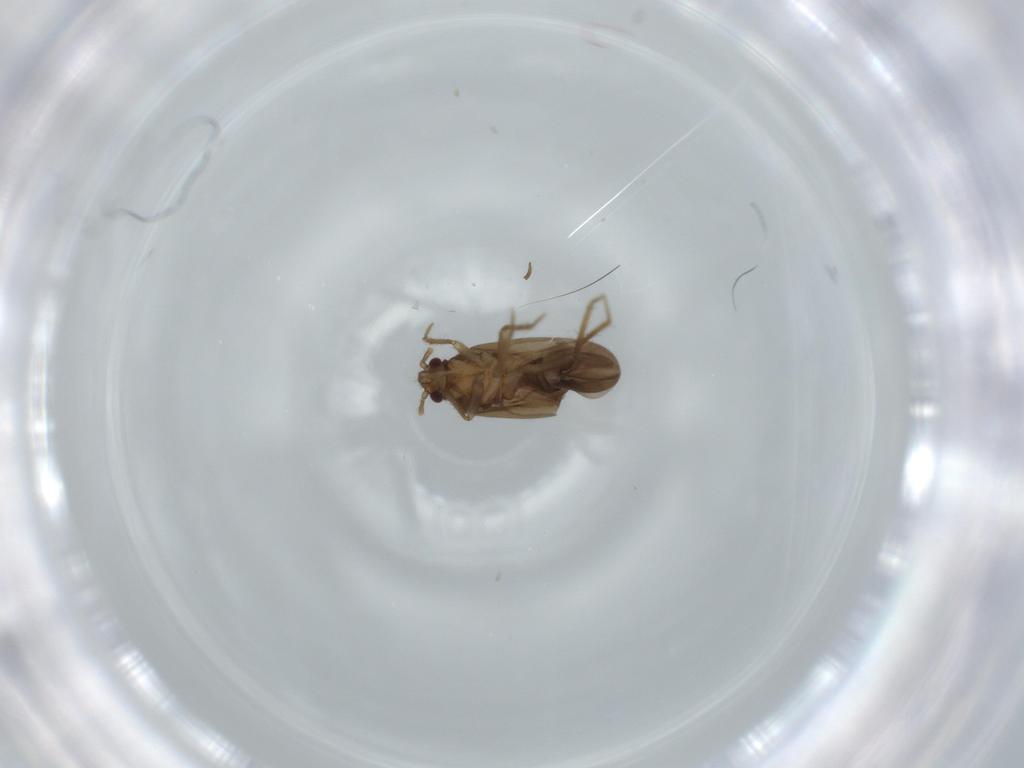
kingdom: Animalia
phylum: Arthropoda
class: Insecta
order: Hemiptera
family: Ceratocombidae
